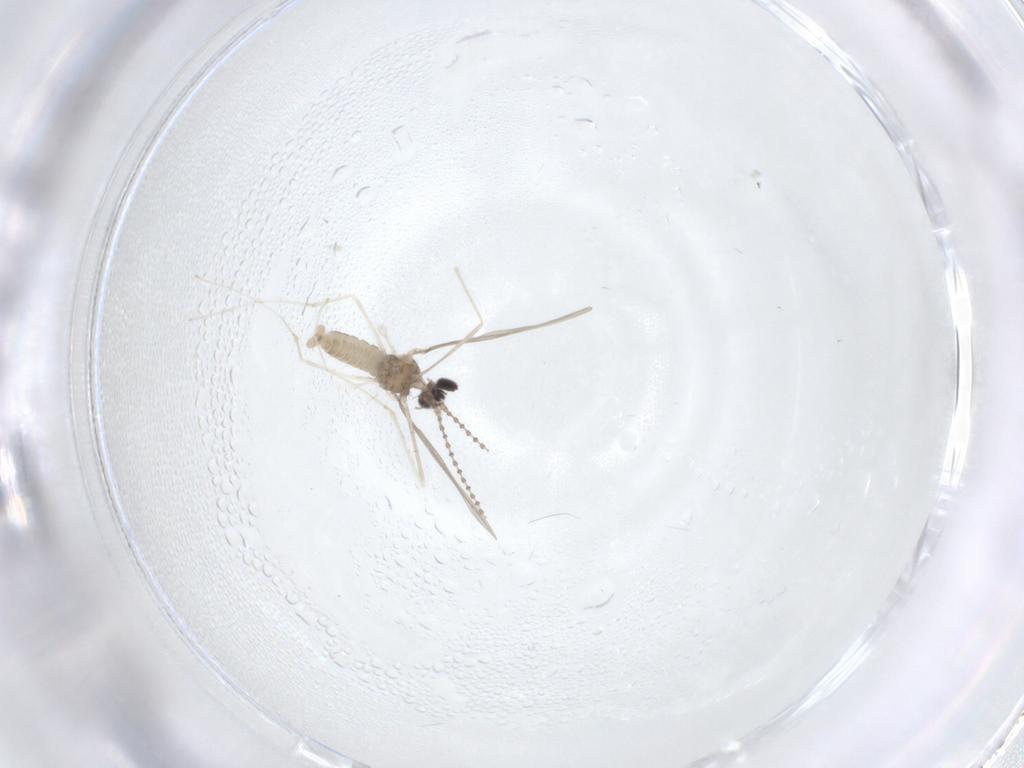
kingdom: Animalia
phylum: Arthropoda
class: Insecta
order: Diptera
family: Cecidomyiidae
